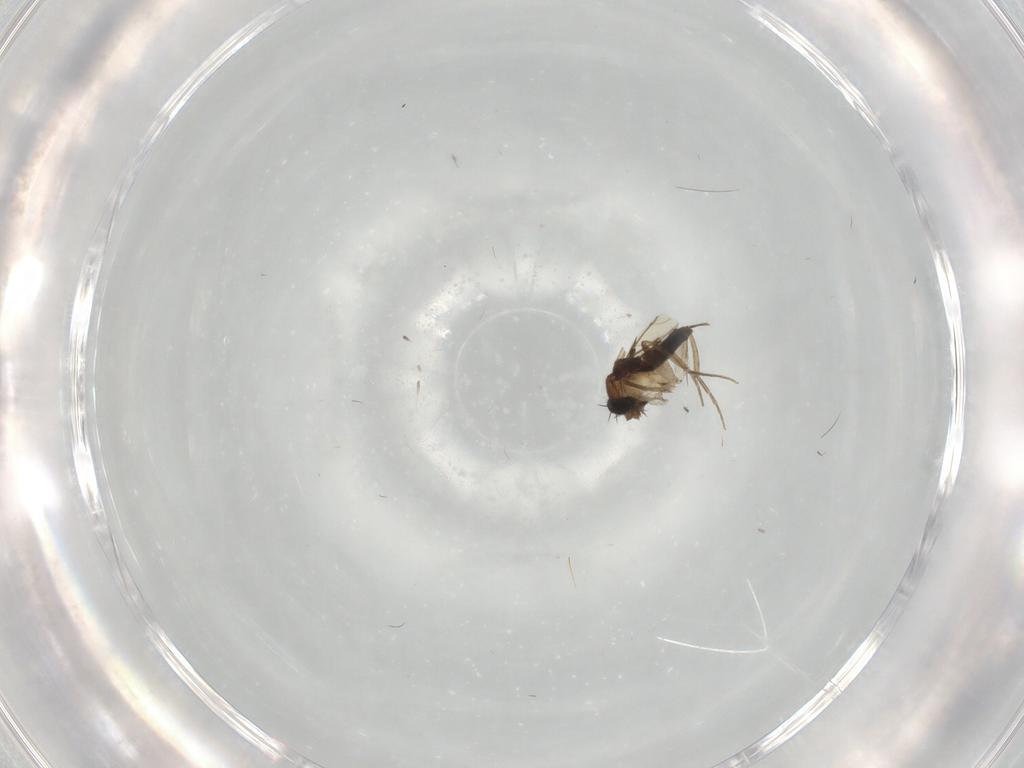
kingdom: Animalia
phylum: Arthropoda
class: Insecta
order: Diptera
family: Phoridae
